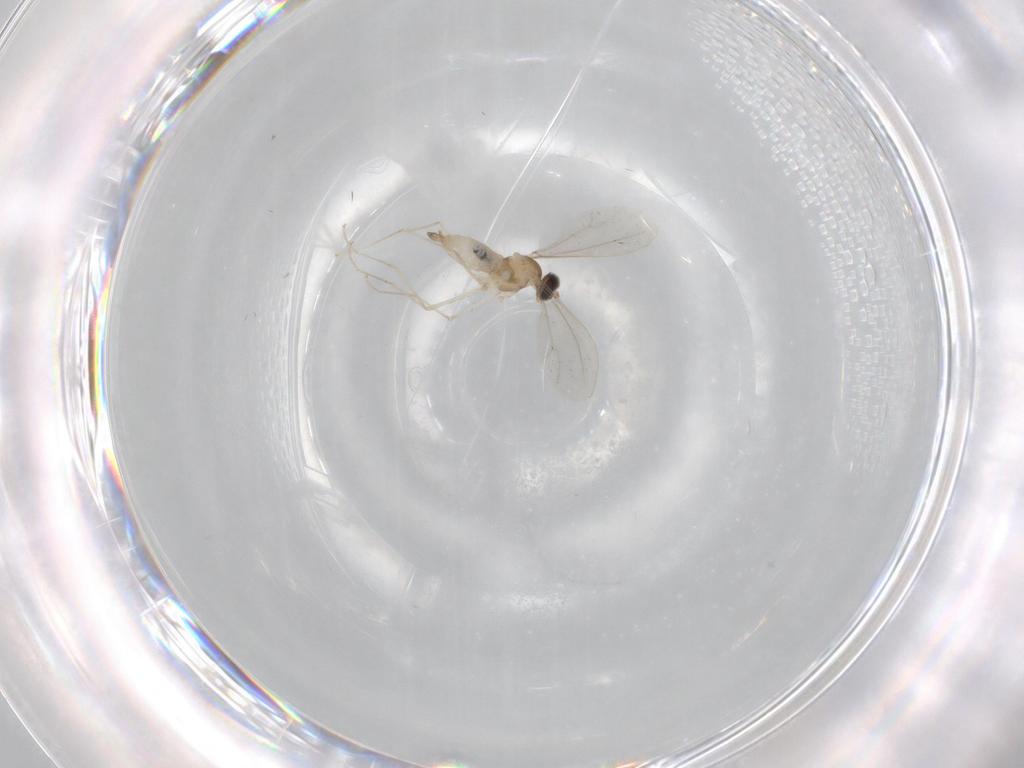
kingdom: Animalia
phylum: Arthropoda
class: Insecta
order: Diptera
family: Cecidomyiidae
